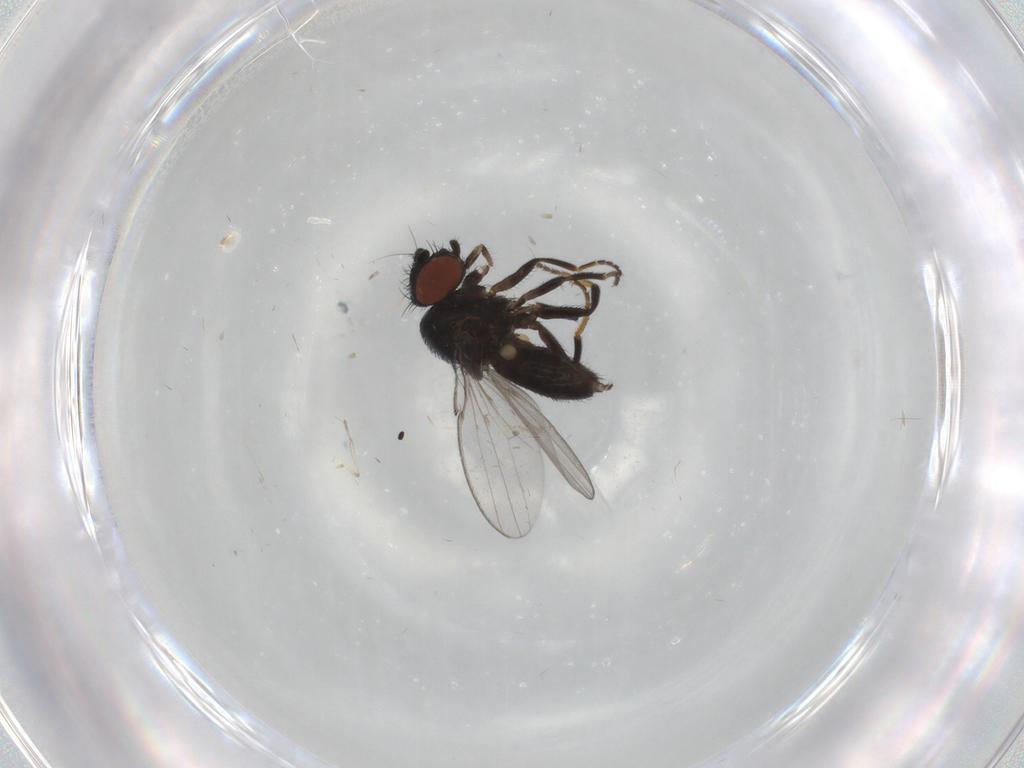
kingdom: Animalia
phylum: Arthropoda
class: Insecta
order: Diptera
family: Milichiidae
